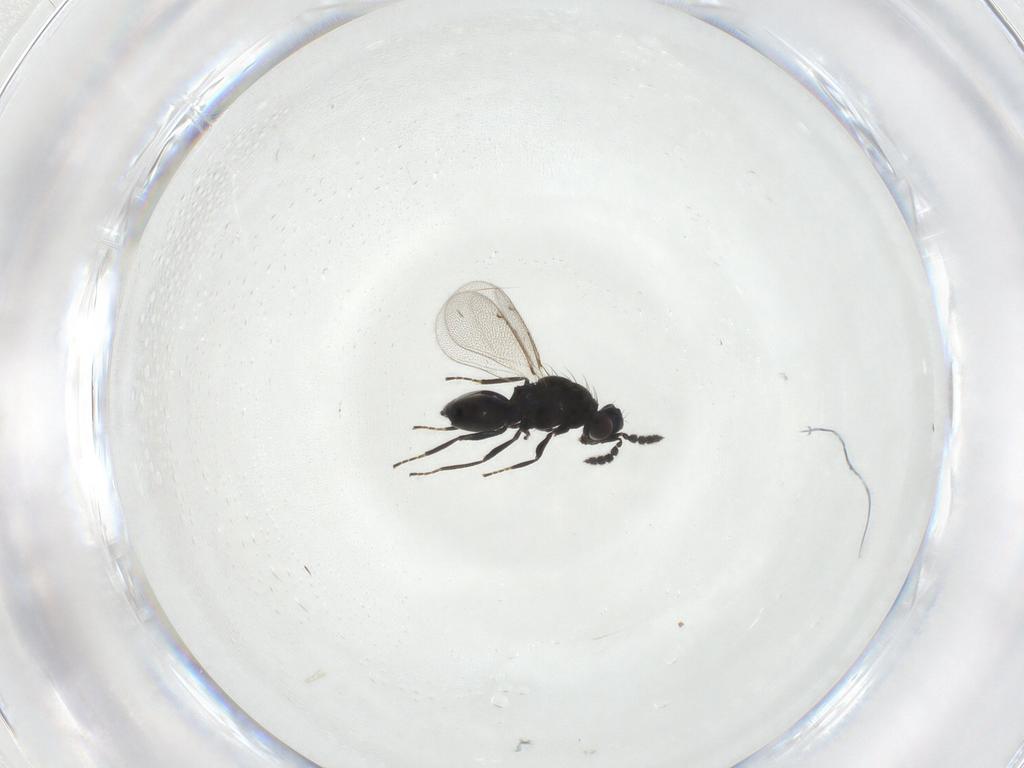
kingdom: Animalia
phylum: Arthropoda
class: Insecta
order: Hymenoptera
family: Eulophidae
